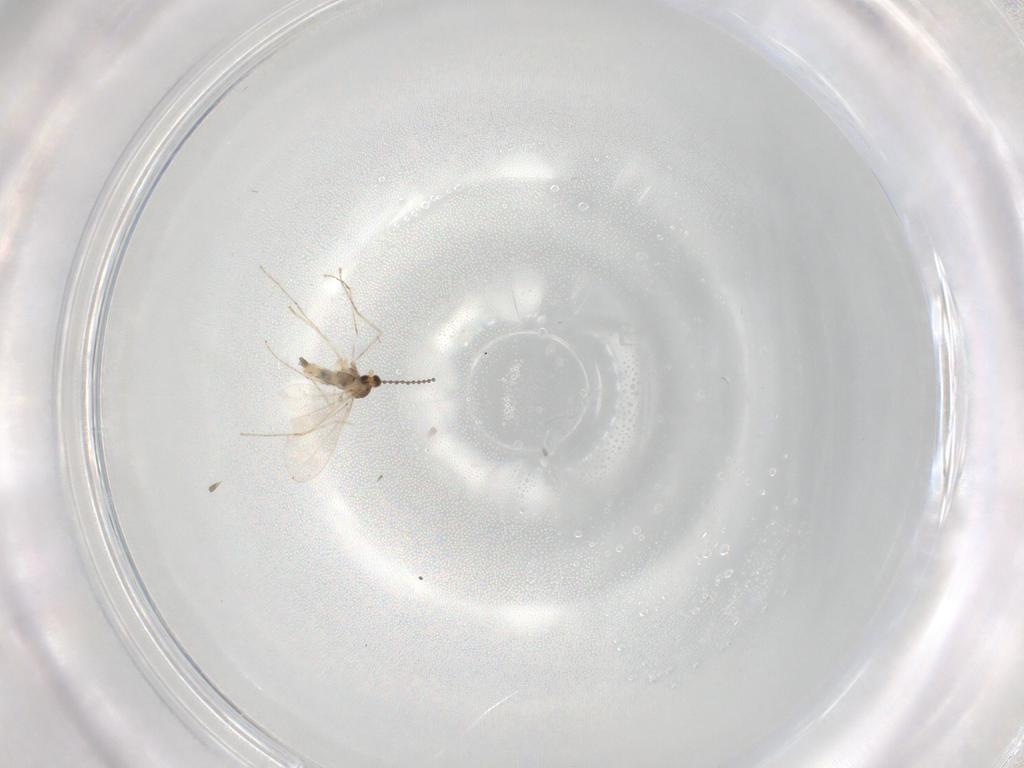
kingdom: Animalia
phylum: Arthropoda
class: Insecta
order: Diptera
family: Cecidomyiidae
